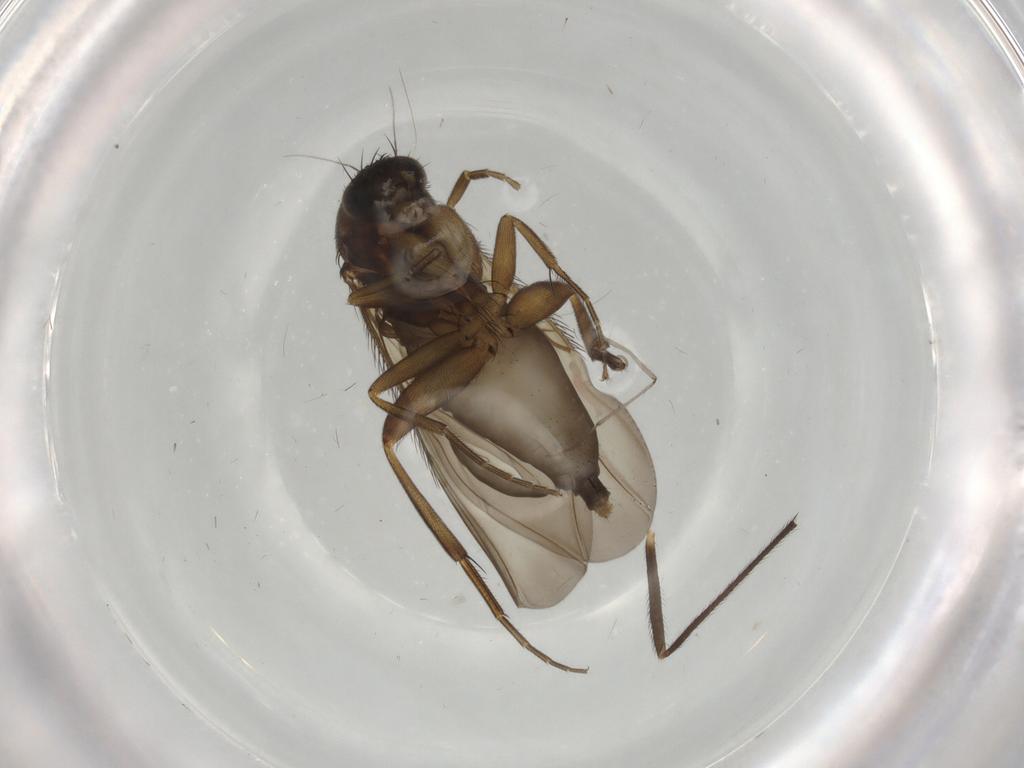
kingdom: Animalia
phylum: Arthropoda
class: Insecta
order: Diptera
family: Phoridae
